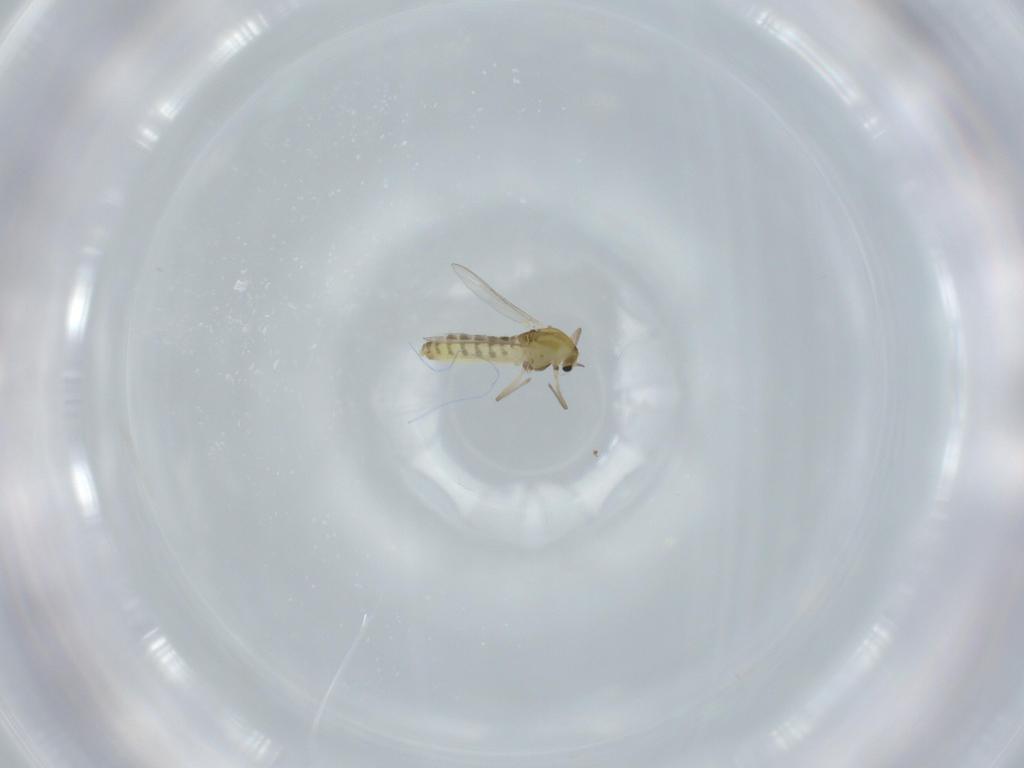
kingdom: Animalia
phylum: Arthropoda
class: Insecta
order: Diptera
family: Chironomidae
